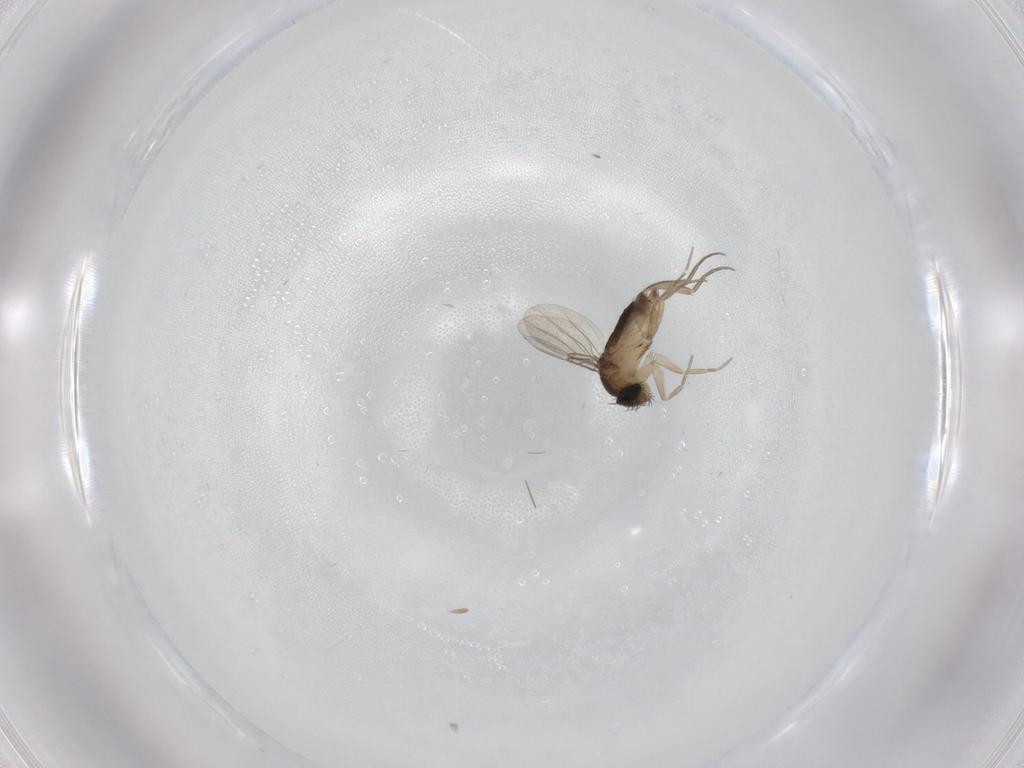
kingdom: Animalia
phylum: Arthropoda
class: Insecta
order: Diptera
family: Phoridae
